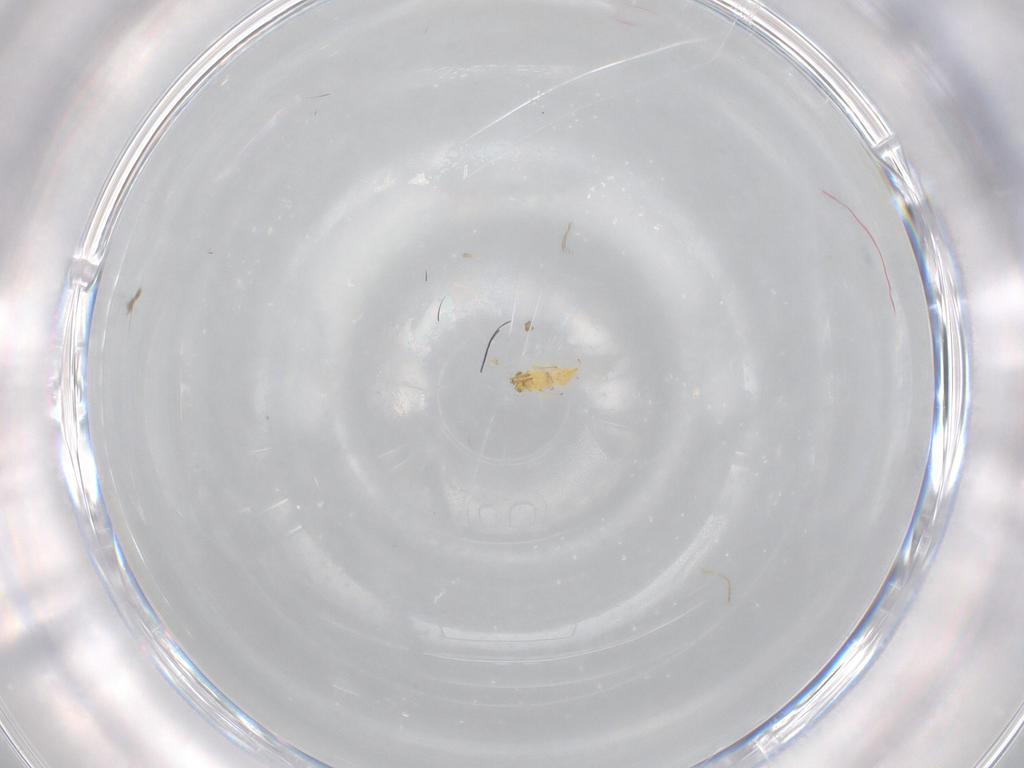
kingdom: Animalia
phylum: Arthropoda
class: Insecta
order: Hymenoptera
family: Aphelinidae
